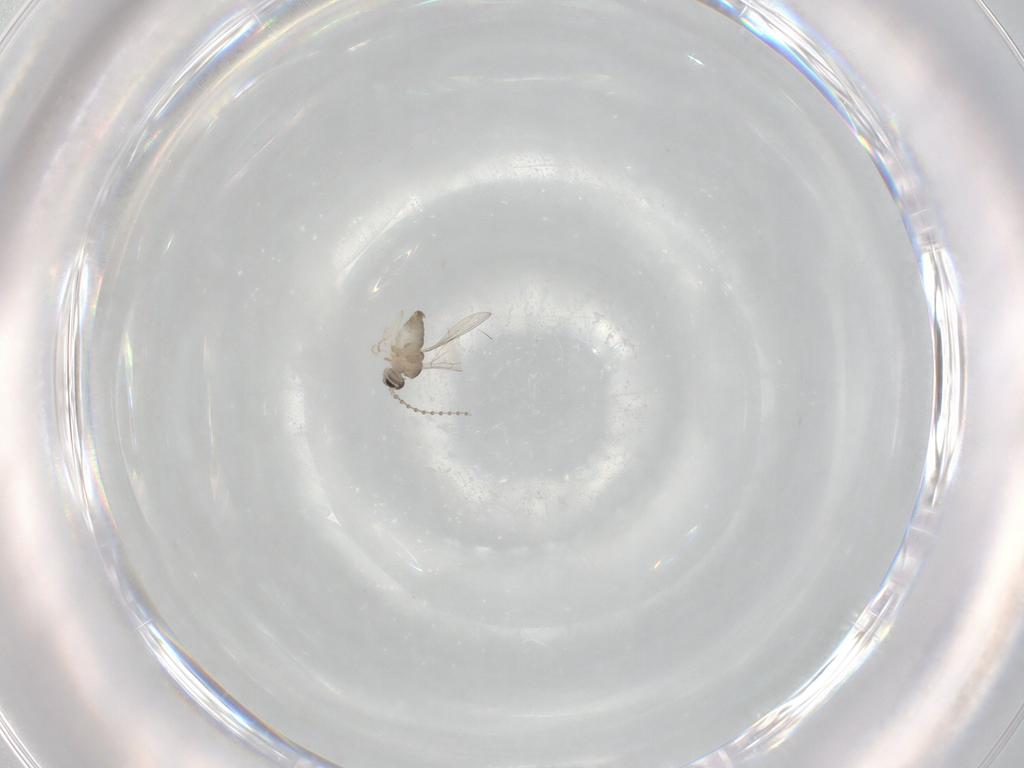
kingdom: Animalia
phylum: Arthropoda
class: Insecta
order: Diptera
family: Cecidomyiidae
